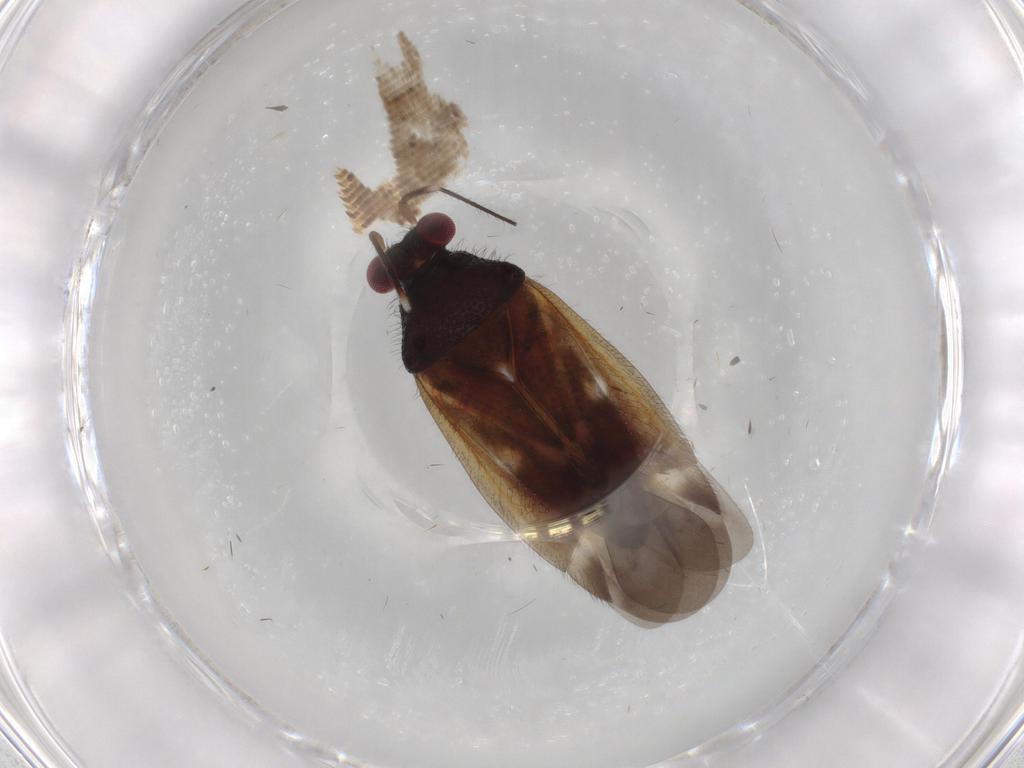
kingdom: Animalia
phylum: Arthropoda
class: Insecta
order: Hemiptera
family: Miridae
